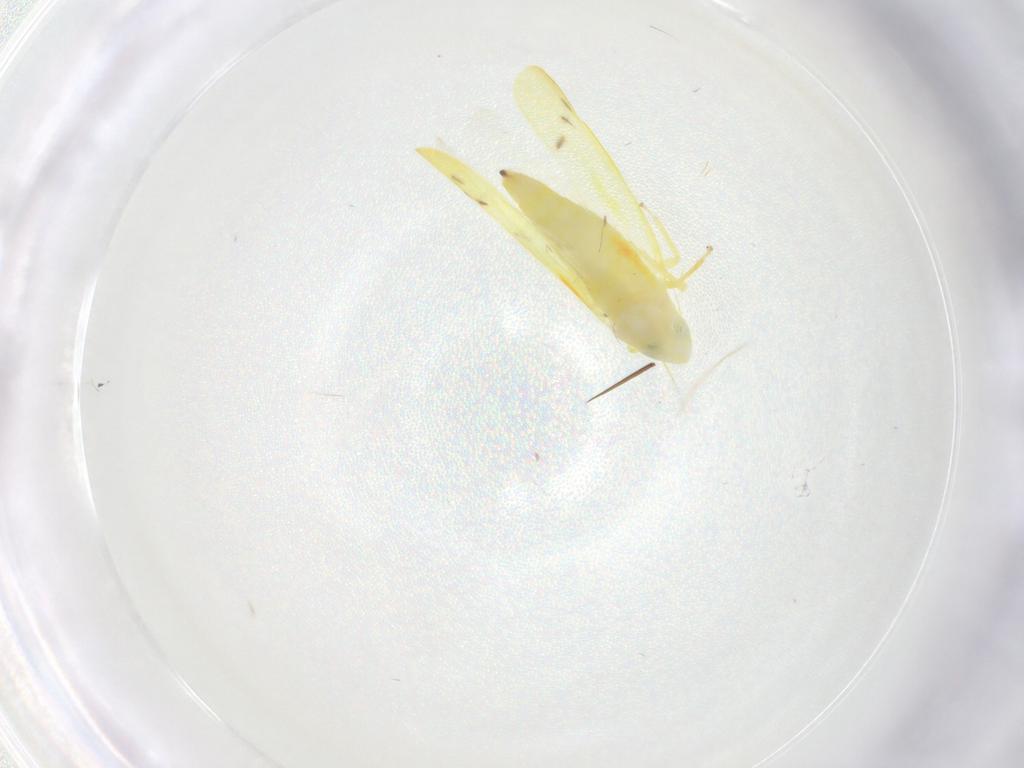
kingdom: Animalia
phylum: Arthropoda
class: Insecta
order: Hemiptera
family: Cicadellidae
